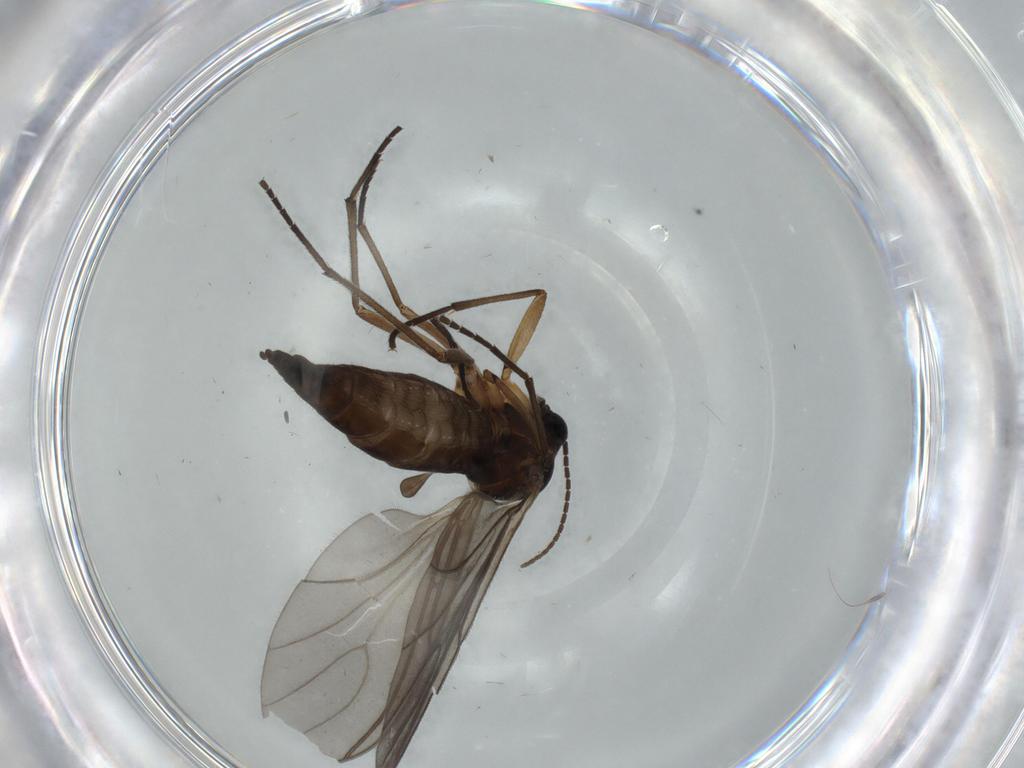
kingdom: Animalia
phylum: Arthropoda
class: Insecta
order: Diptera
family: Sciaridae
